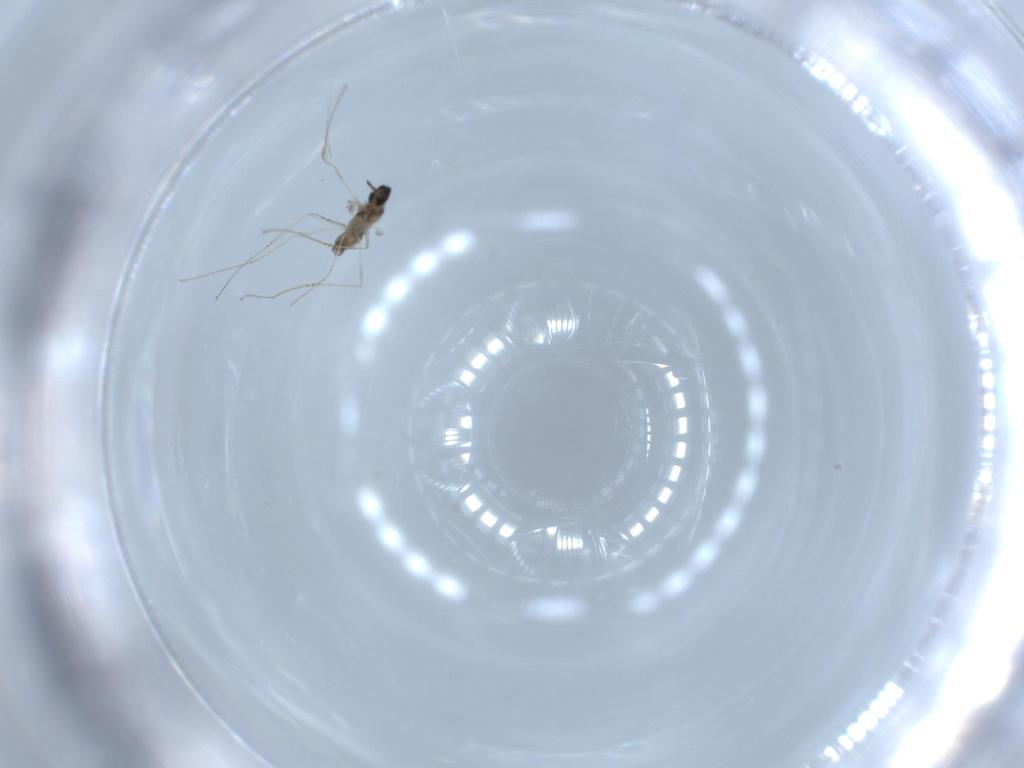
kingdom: Animalia
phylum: Arthropoda
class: Insecta
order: Diptera
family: Cecidomyiidae
